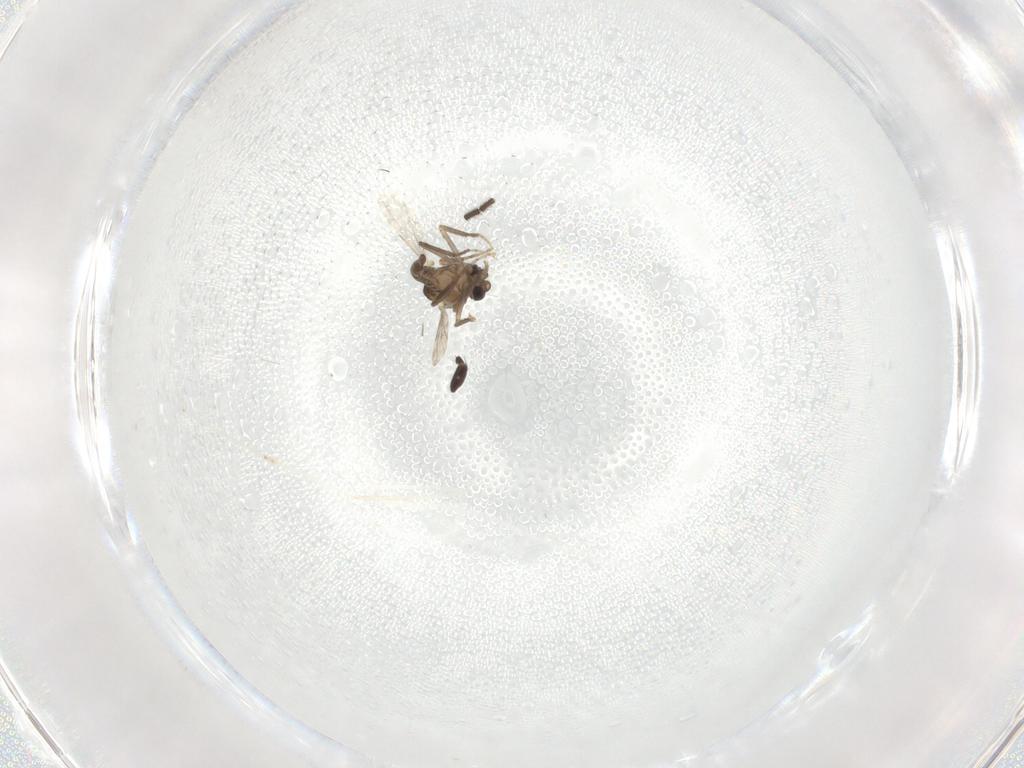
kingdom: Animalia
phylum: Arthropoda
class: Insecta
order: Diptera
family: Ceratopogonidae
